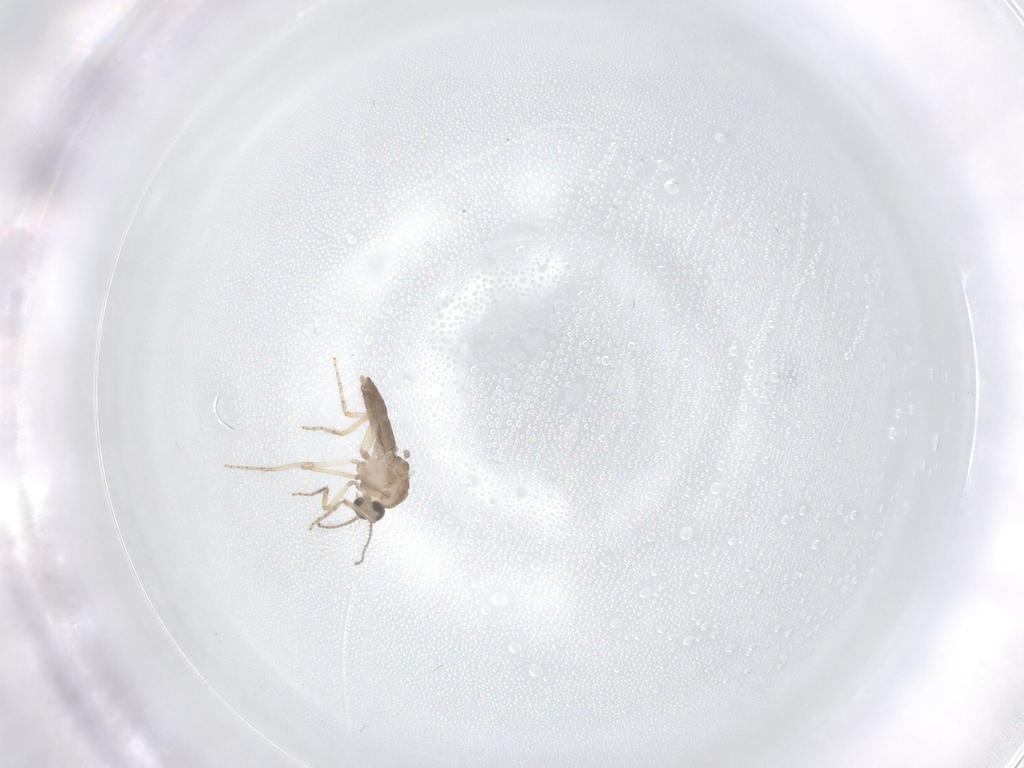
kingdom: Animalia
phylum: Arthropoda
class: Insecta
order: Diptera
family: Ceratopogonidae
